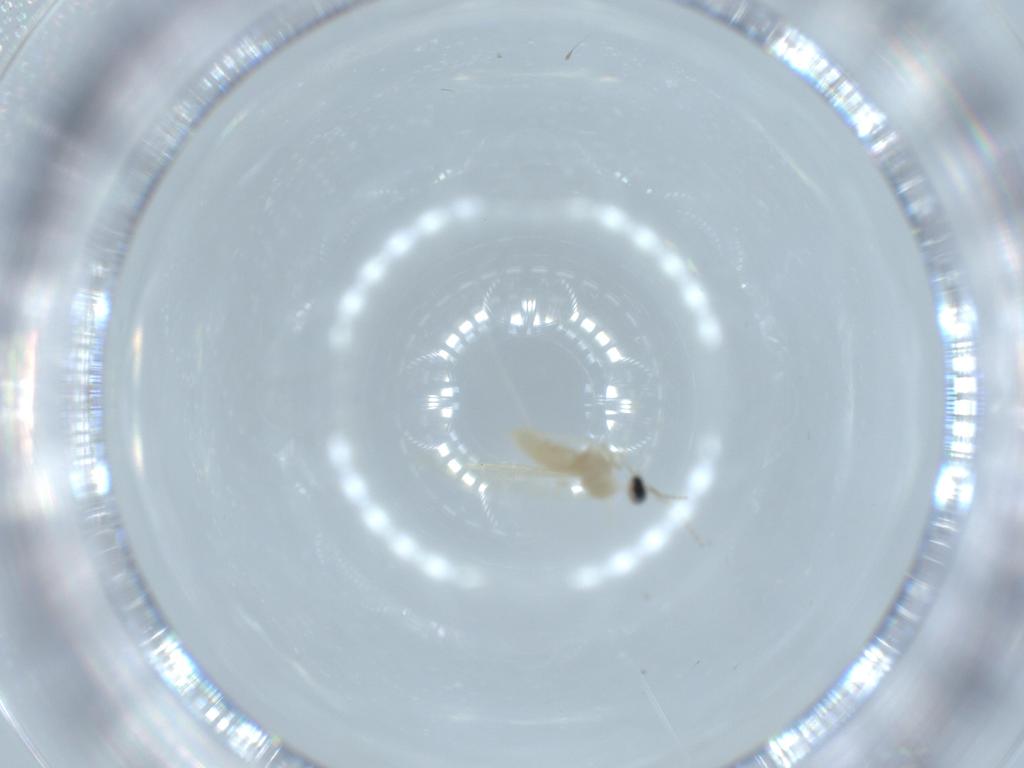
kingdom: Animalia
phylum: Arthropoda
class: Insecta
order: Diptera
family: Cecidomyiidae
